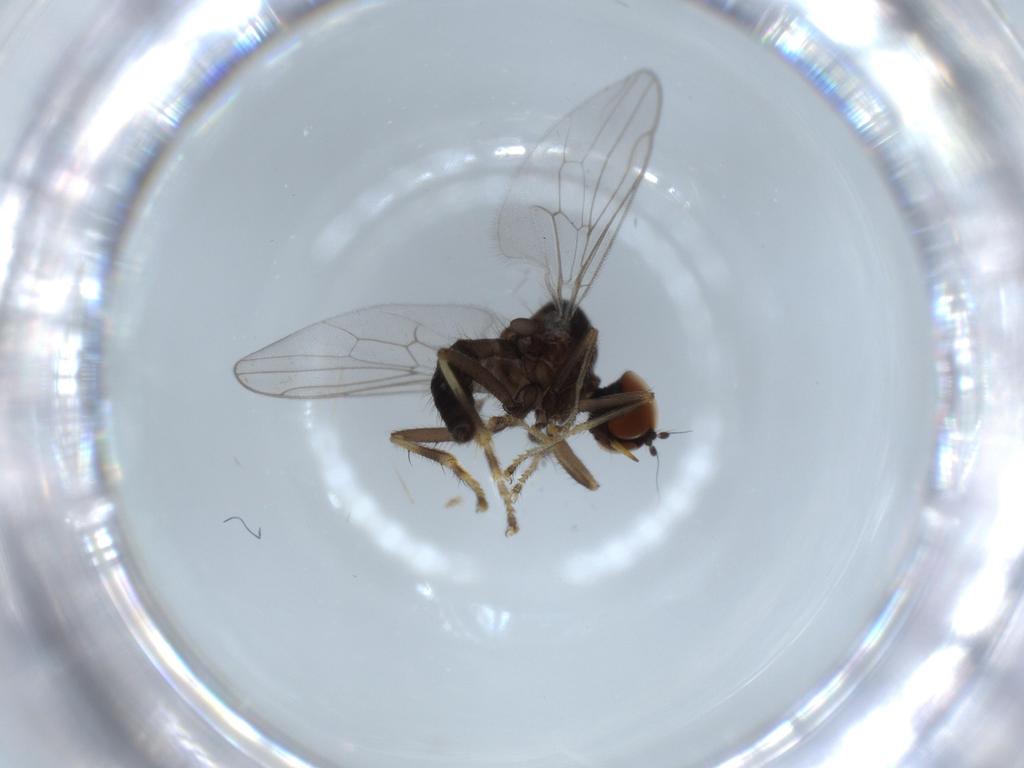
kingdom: Animalia
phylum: Arthropoda
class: Insecta
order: Diptera
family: Hybotidae
